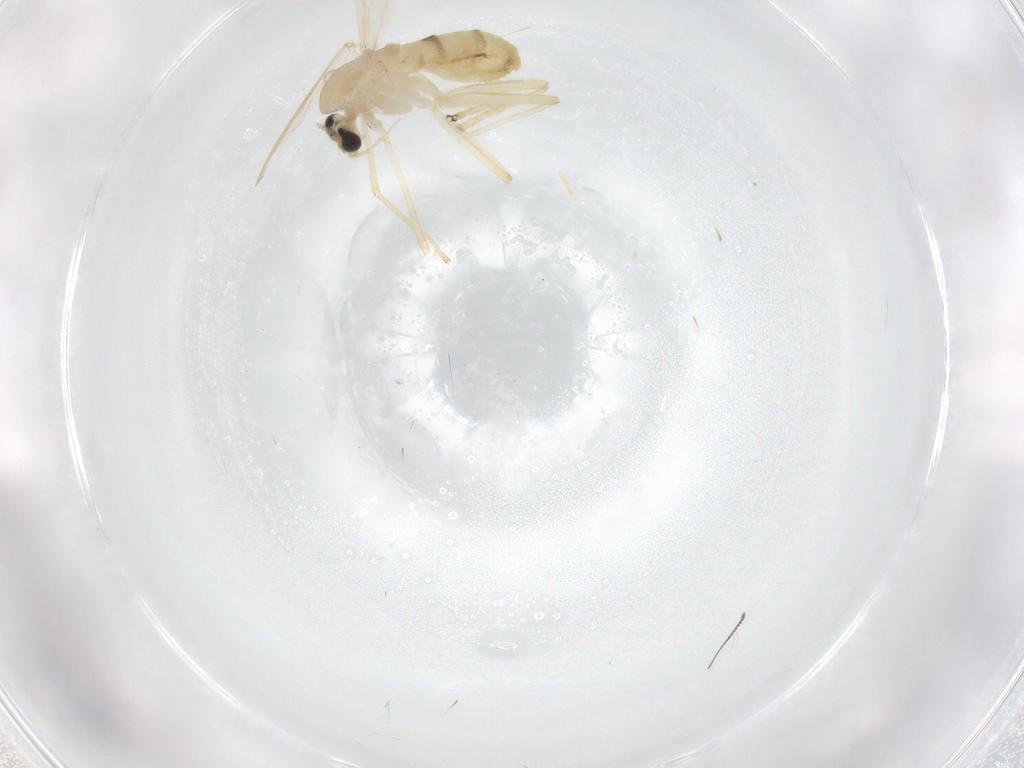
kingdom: Animalia
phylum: Arthropoda
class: Insecta
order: Diptera
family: Chironomidae
